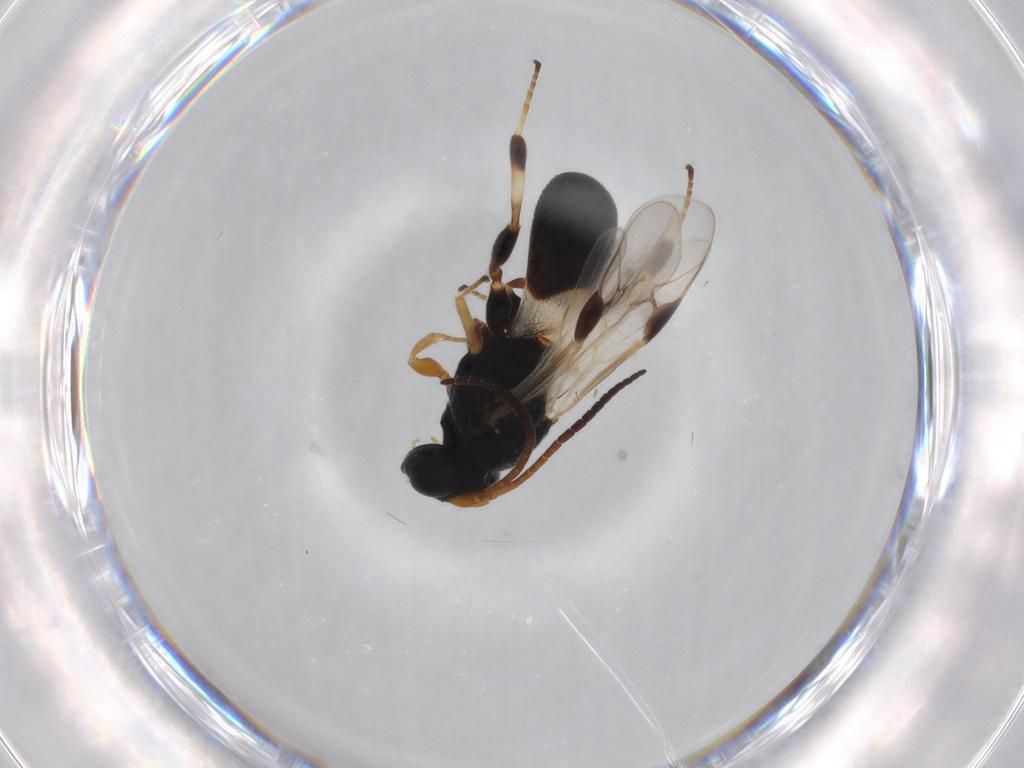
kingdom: Animalia
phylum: Arthropoda
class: Insecta
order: Hymenoptera
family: Braconidae
